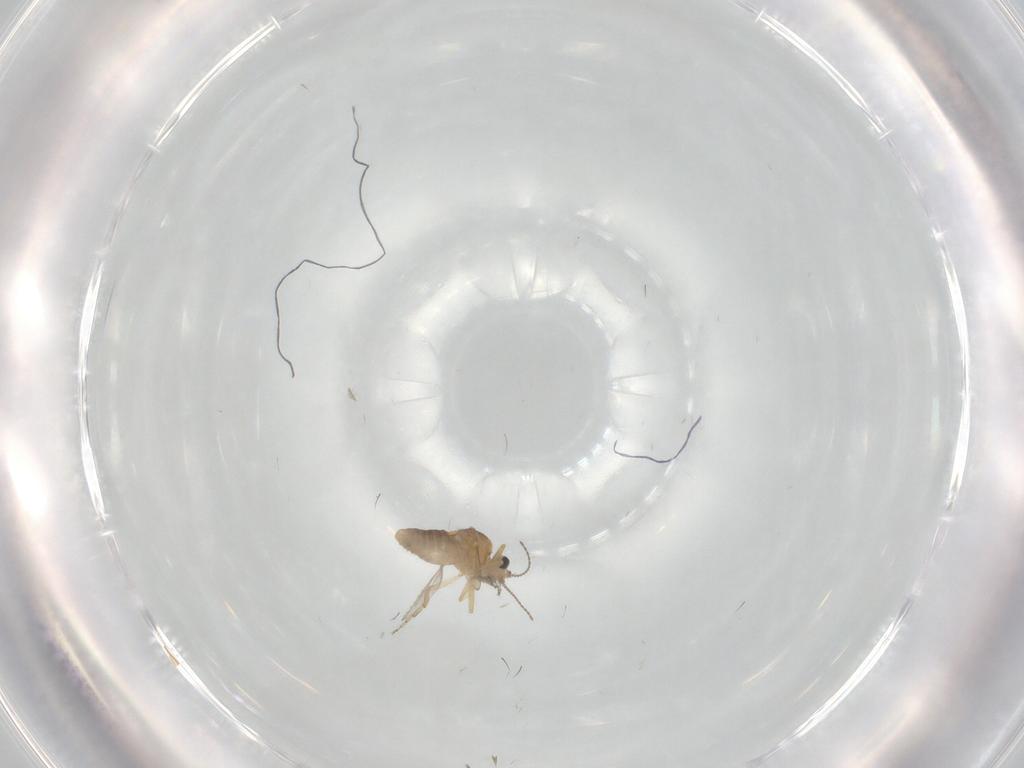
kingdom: Animalia
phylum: Arthropoda
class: Insecta
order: Diptera
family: Ceratopogonidae
